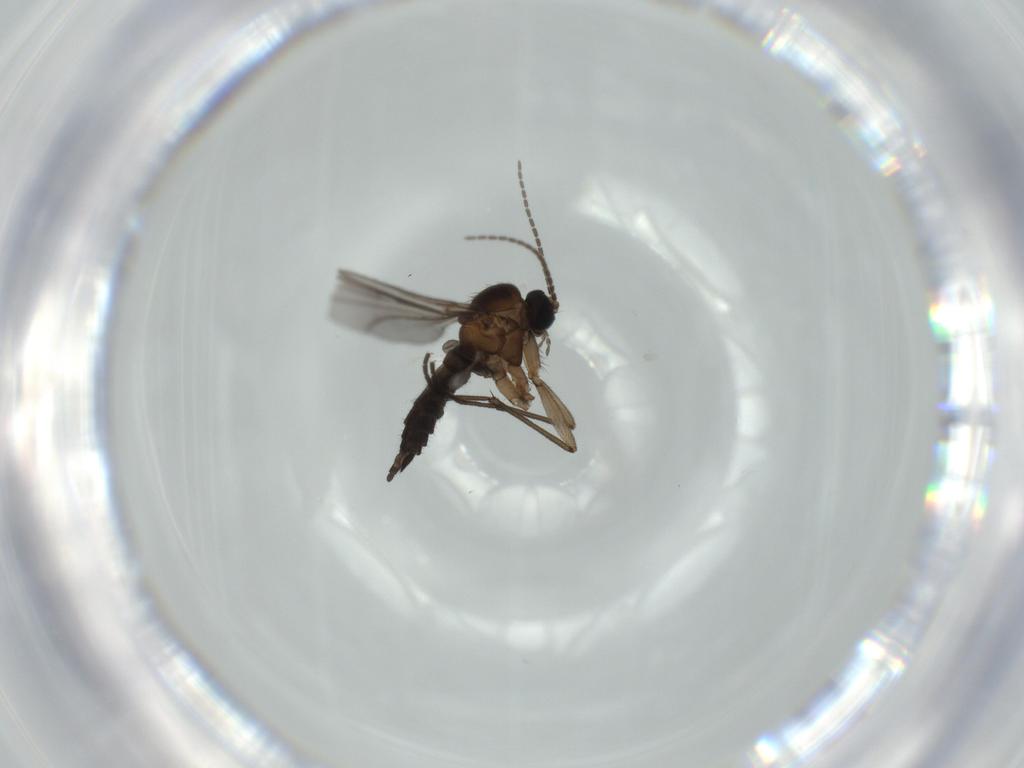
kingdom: Animalia
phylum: Arthropoda
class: Insecta
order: Diptera
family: Sciaridae
